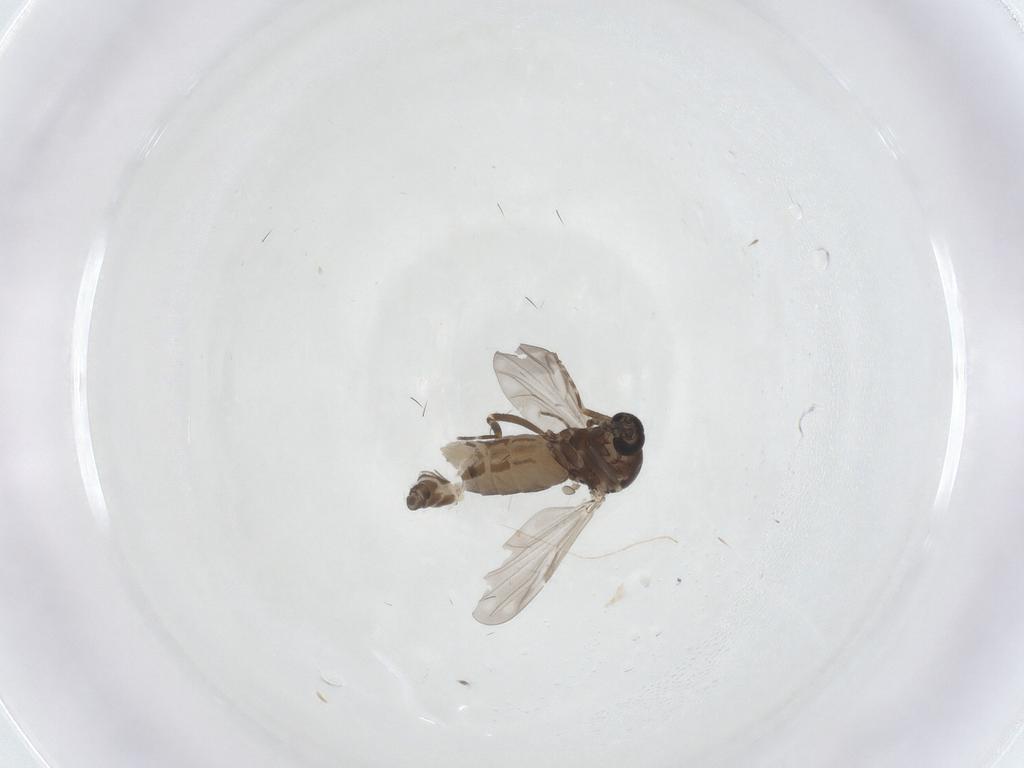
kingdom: Animalia
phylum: Arthropoda
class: Insecta
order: Diptera
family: Ceratopogonidae
